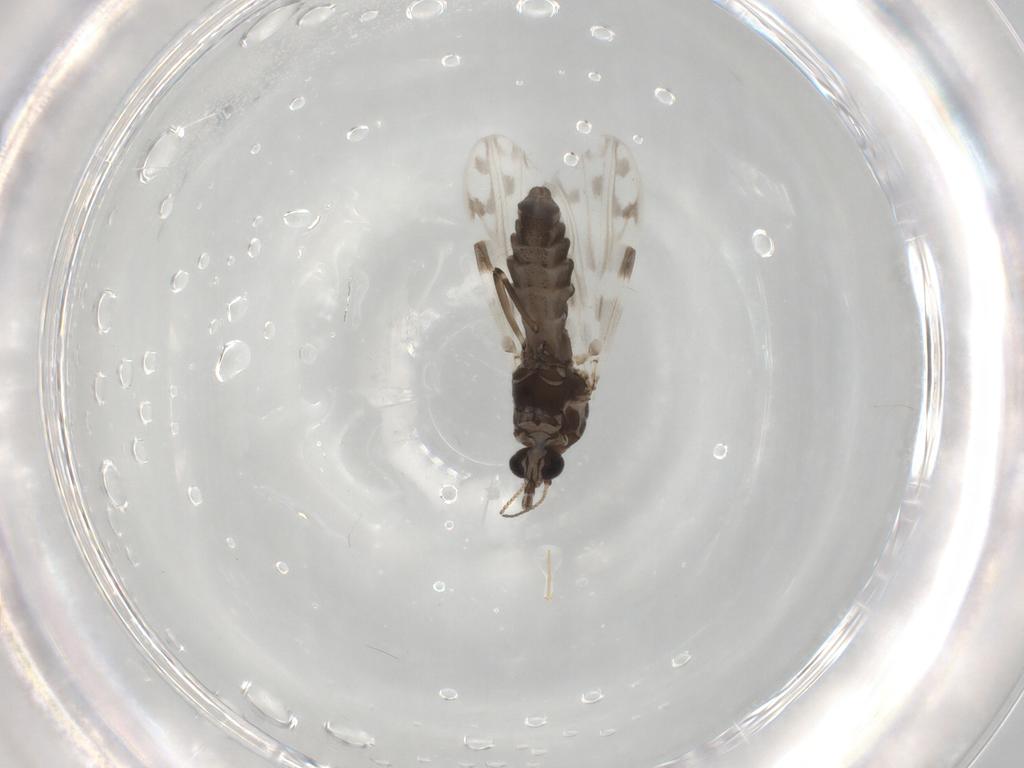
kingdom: Animalia
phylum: Arthropoda
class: Insecta
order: Diptera
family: Ceratopogonidae
